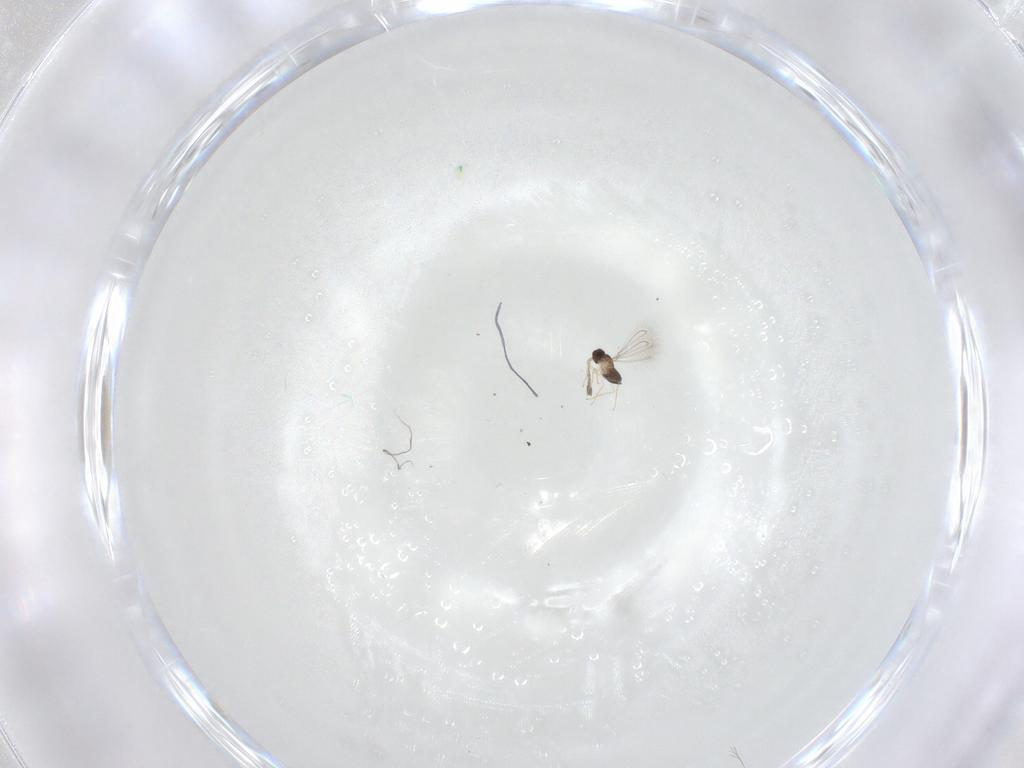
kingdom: Animalia
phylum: Arthropoda
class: Insecta
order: Hymenoptera
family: Mymaridae
